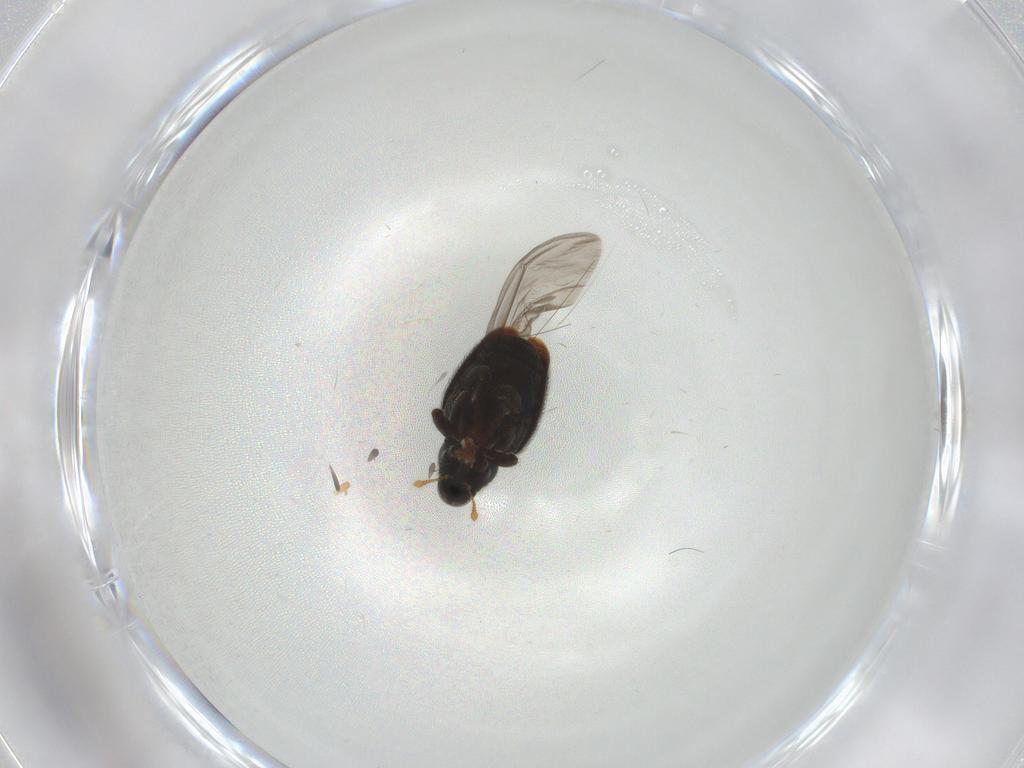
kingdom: Animalia
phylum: Arthropoda
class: Insecta
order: Coleoptera
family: Curculionidae
